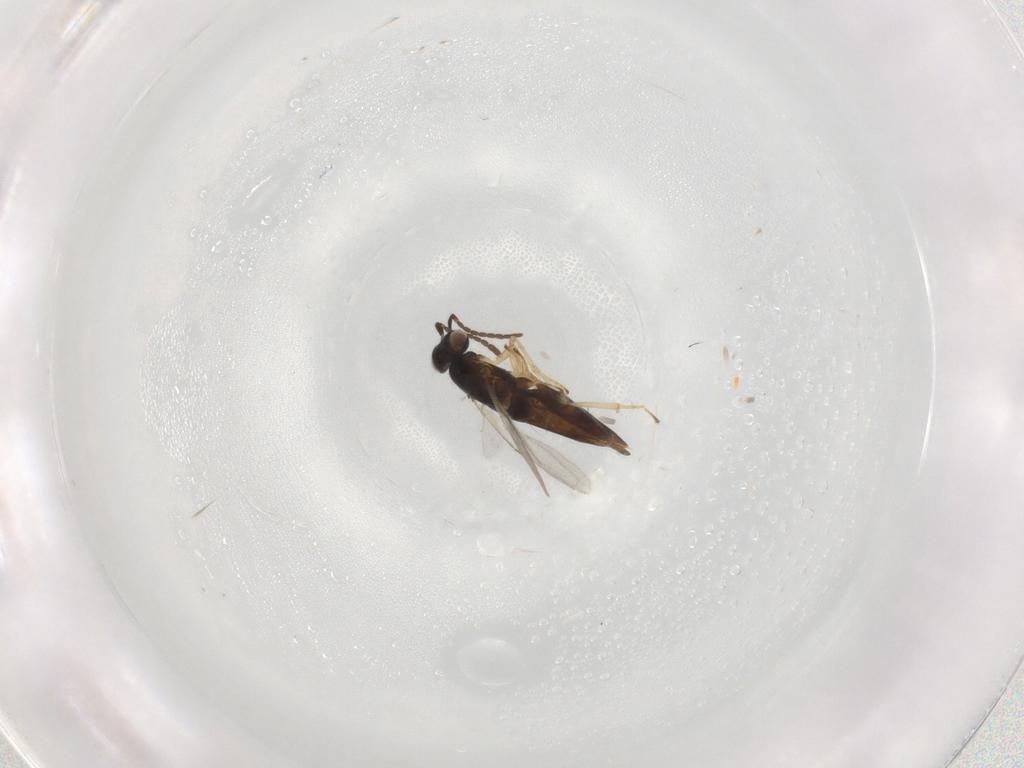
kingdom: Animalia
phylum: Arthropoda
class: Insecta
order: Hymenoptera
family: Encyrtidae
